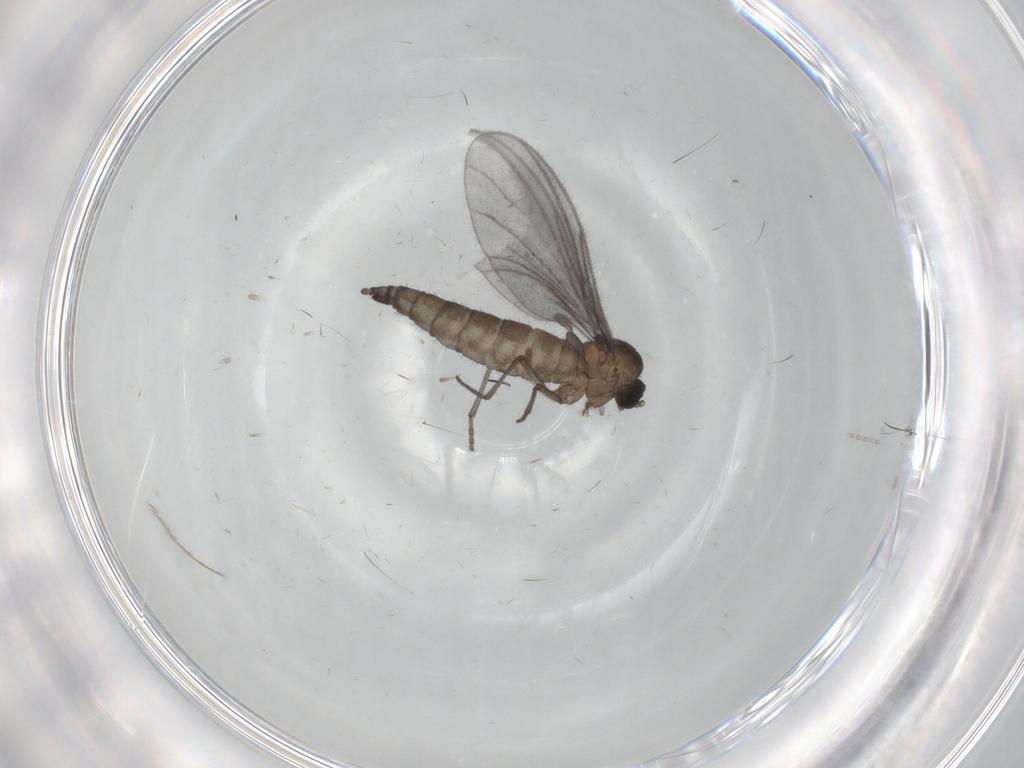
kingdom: Animalia
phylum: Arthropoda
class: Insecta
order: Diptera
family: Sciaridae
